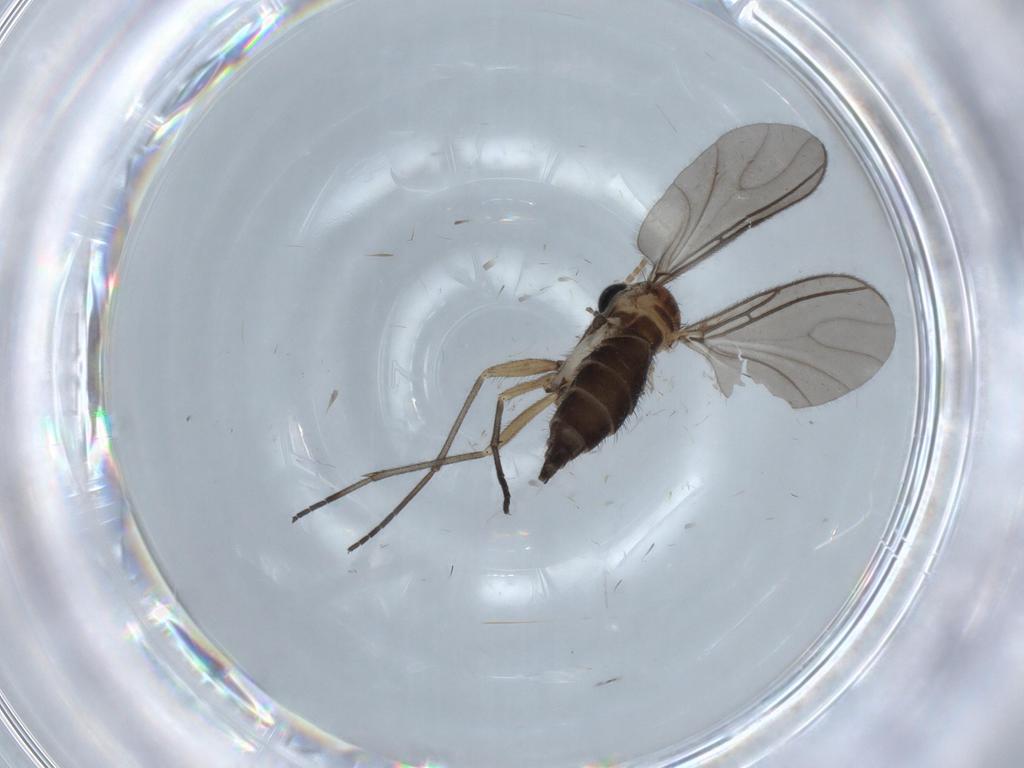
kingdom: Animalia
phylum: Arthropoda
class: Insecta
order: Diptera
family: Sciaridae
